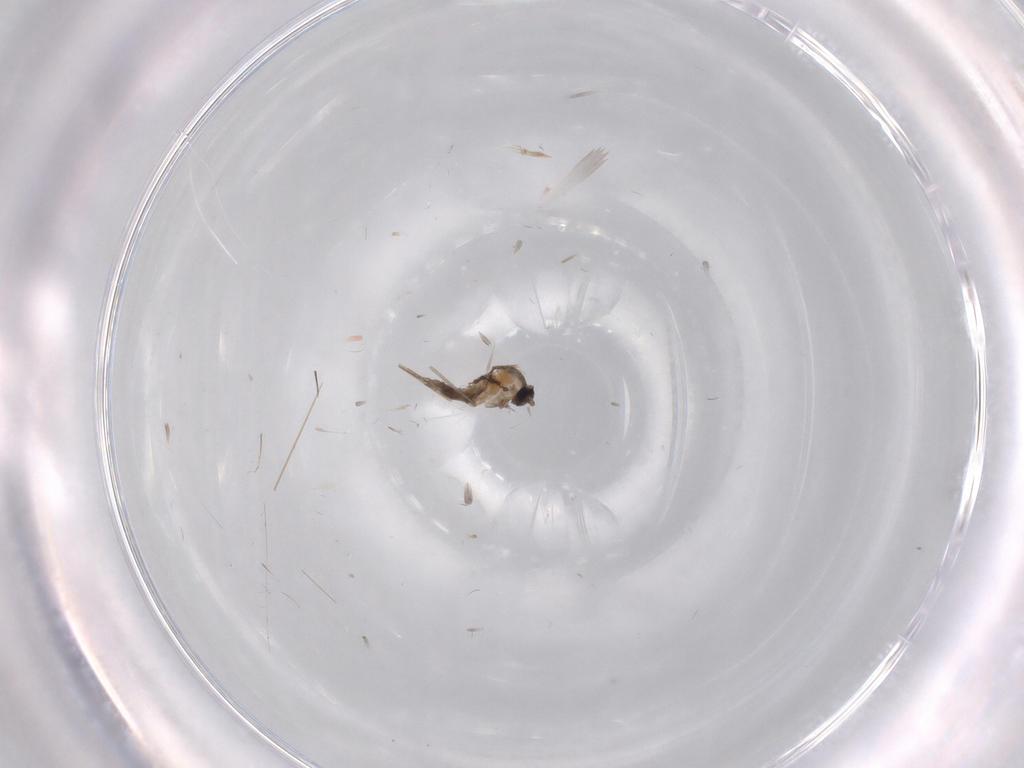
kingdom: Animalia
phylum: Arthropoda
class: Insecta
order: Diptera
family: Cecidomyiidae
